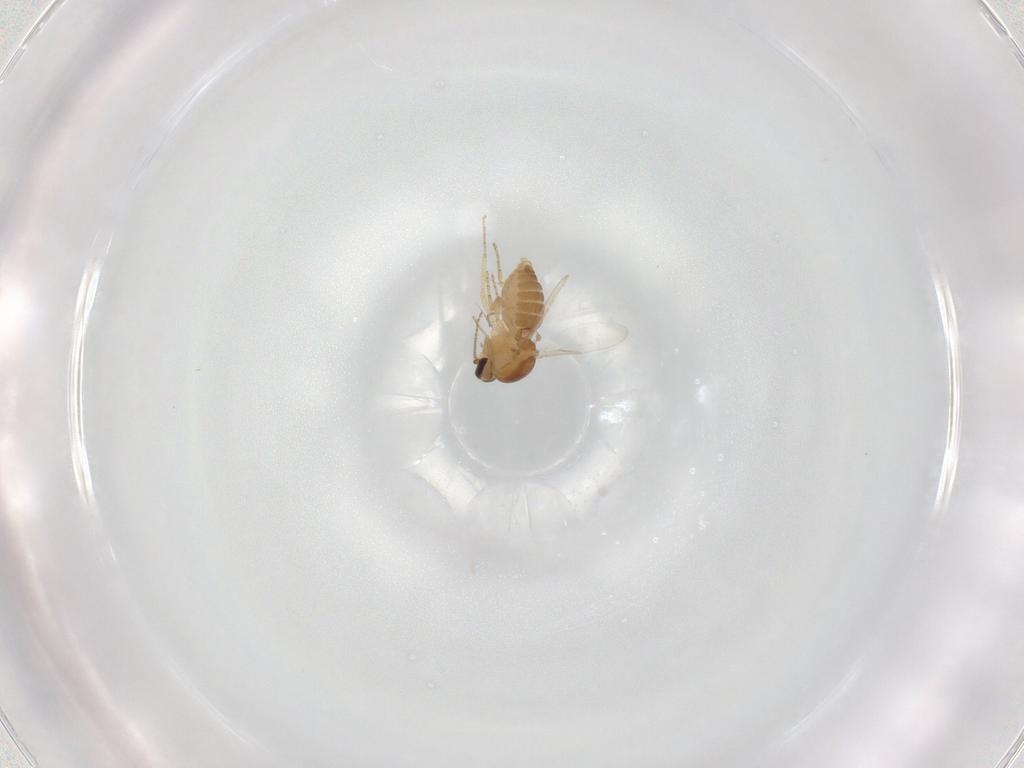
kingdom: Animalia
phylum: Arthropoda
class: Insecta
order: Diptera
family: Ceratopogonidae
